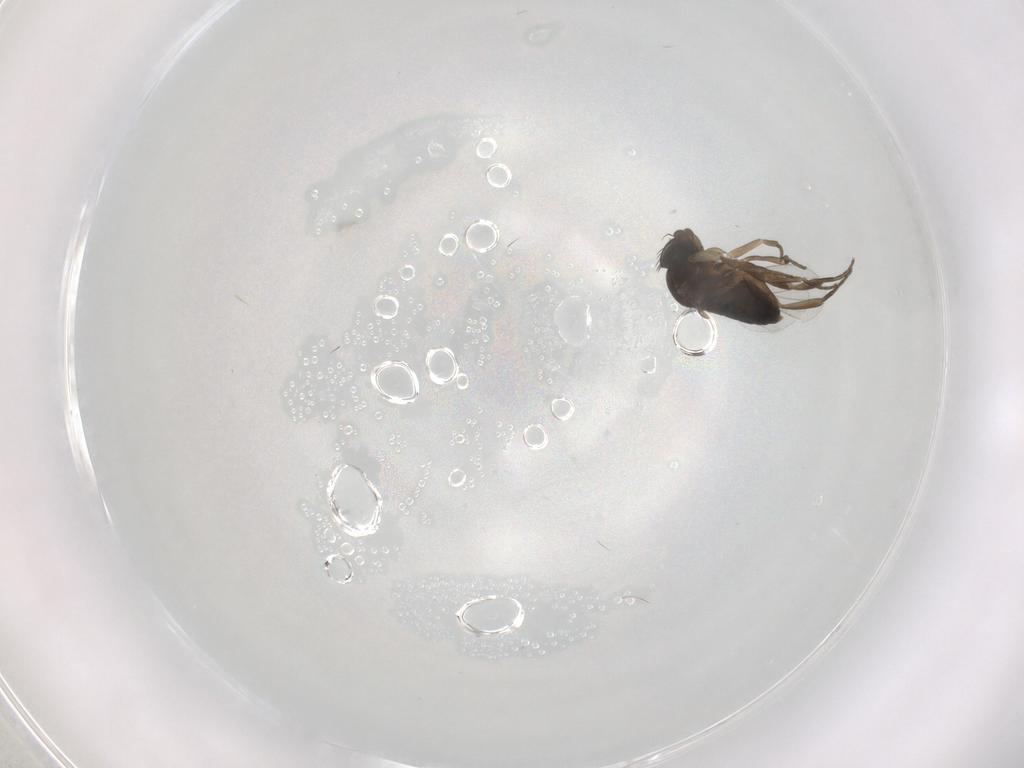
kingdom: Animalia
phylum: Arthropoda
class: Insecta
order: Diptera
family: Phoridae
